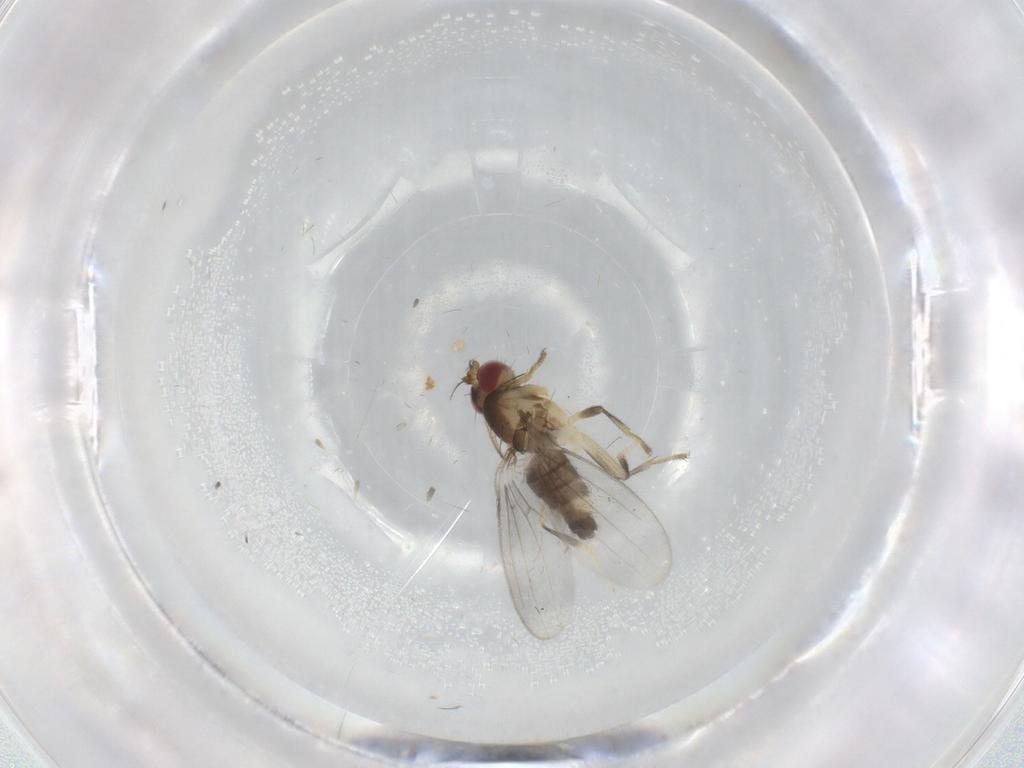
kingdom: Animalia
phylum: Arthropoda
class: Insecta
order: Diptera
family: Periscelididae
